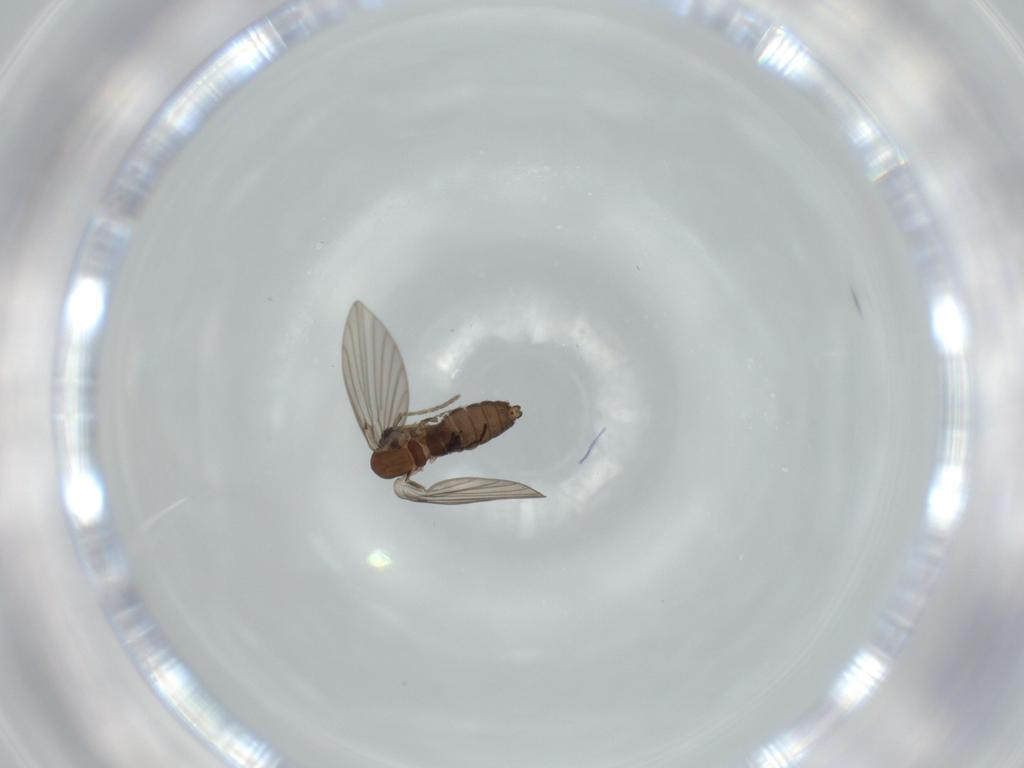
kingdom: Animalia
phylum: Arthropoda
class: Insecta
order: Diptera
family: Psychodidae
